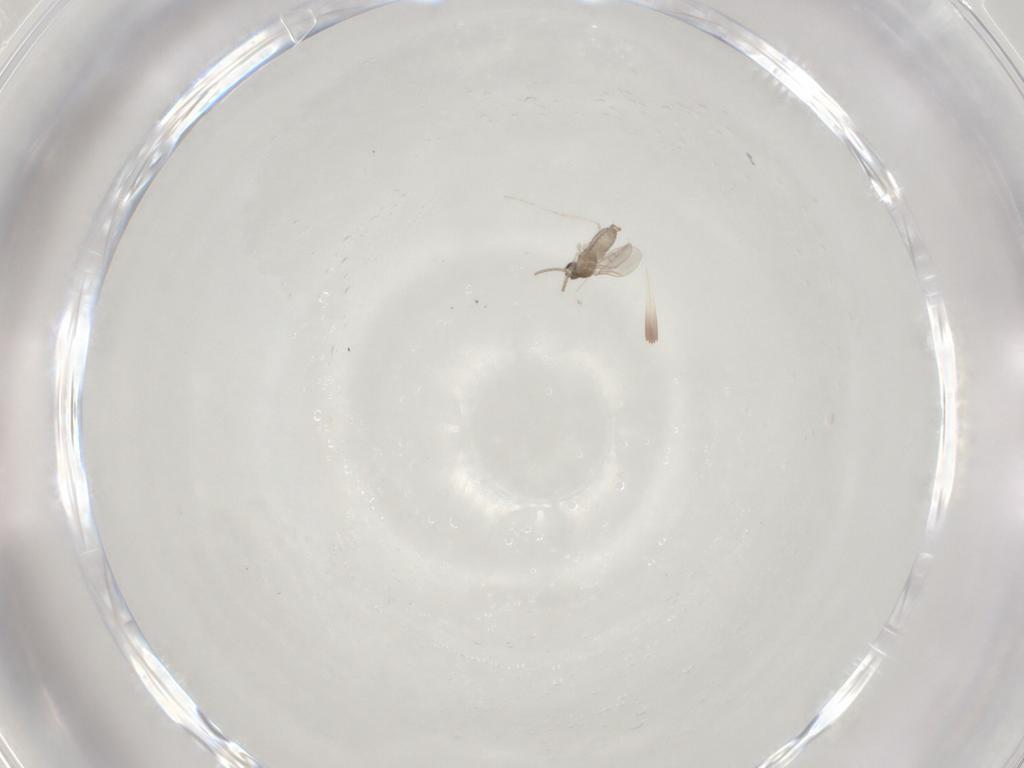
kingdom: Animalia
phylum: Arthropoda
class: Insecta
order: Diptera
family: Cecidomyiidae
